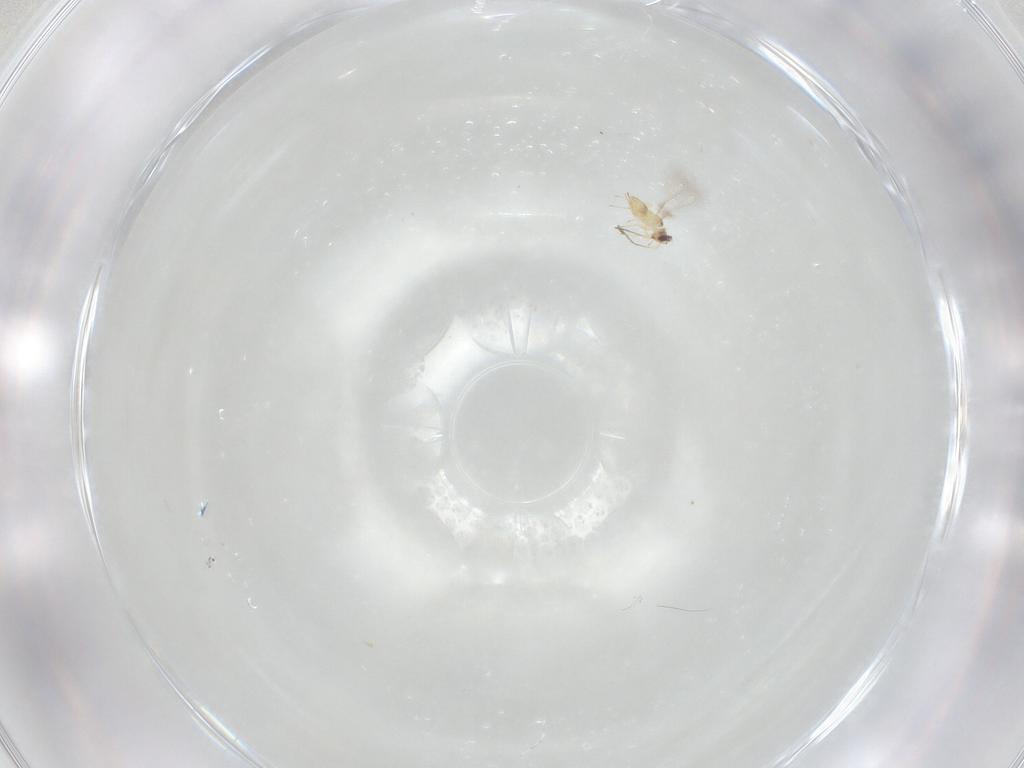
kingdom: Animalia
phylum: Arthropoda
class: Insecta
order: Hymenoptera
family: Mymaridae
